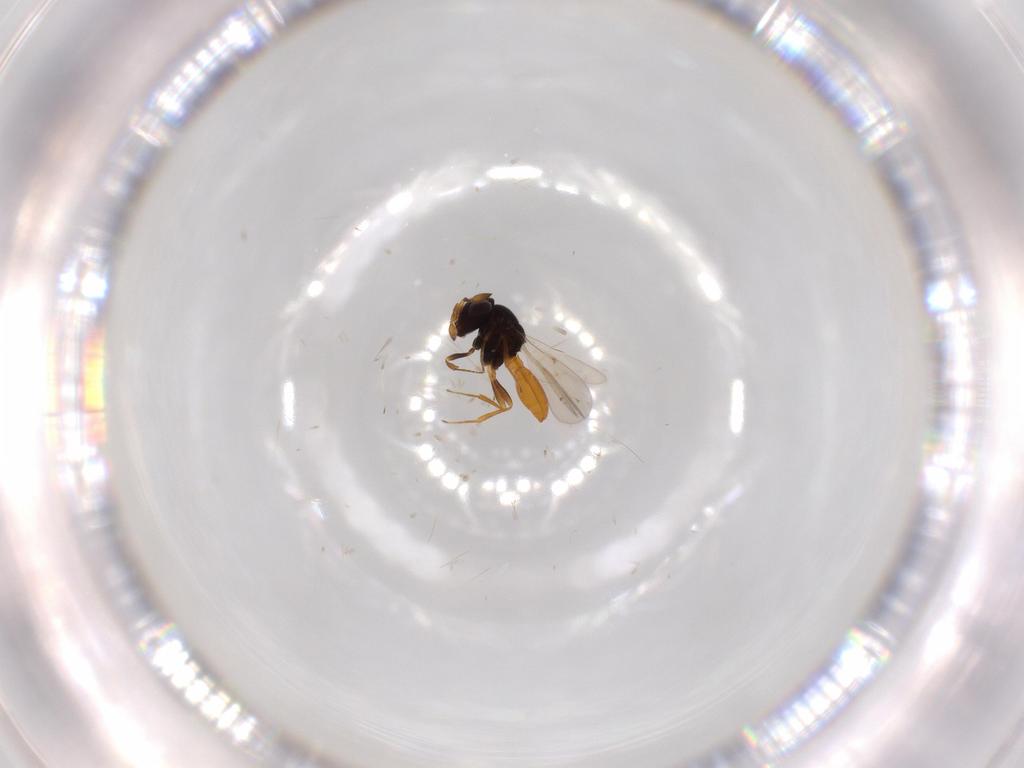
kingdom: Animalia
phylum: Arthropoda
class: Insecta
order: Hymenoptera
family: Scelionidae
